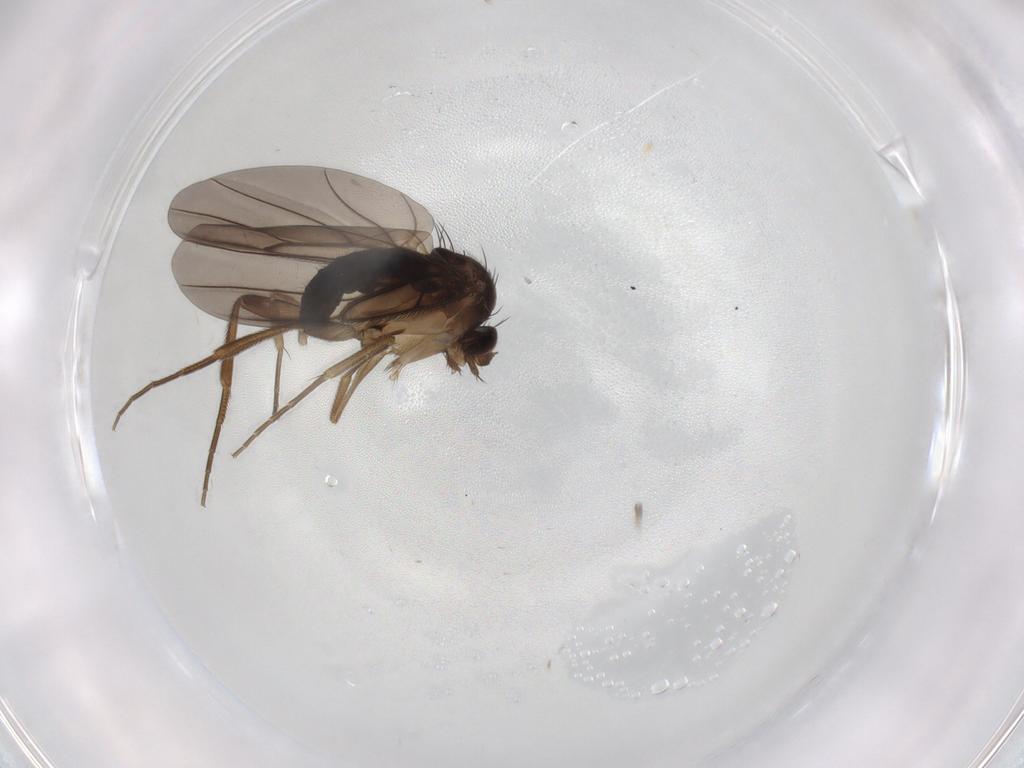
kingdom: Animalia
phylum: Arthropoda
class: Insecta
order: Diptera
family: Phoridae
